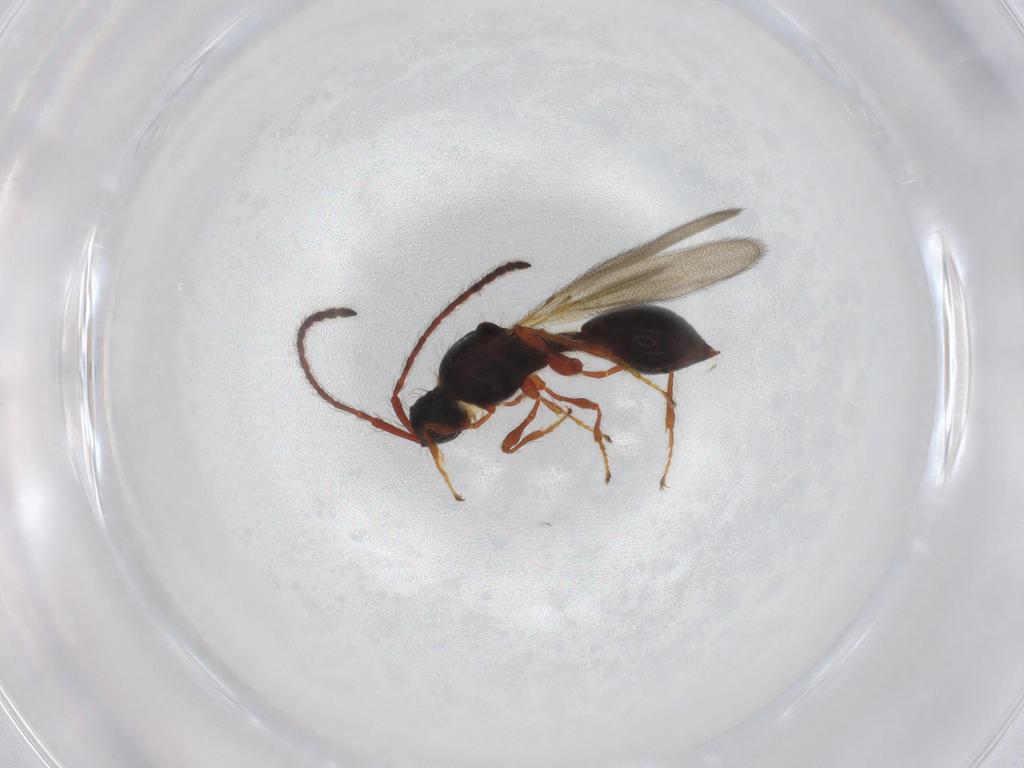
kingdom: Animalia
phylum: Arthropoda
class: Insecta
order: Hymenoptera
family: Diapriidae
